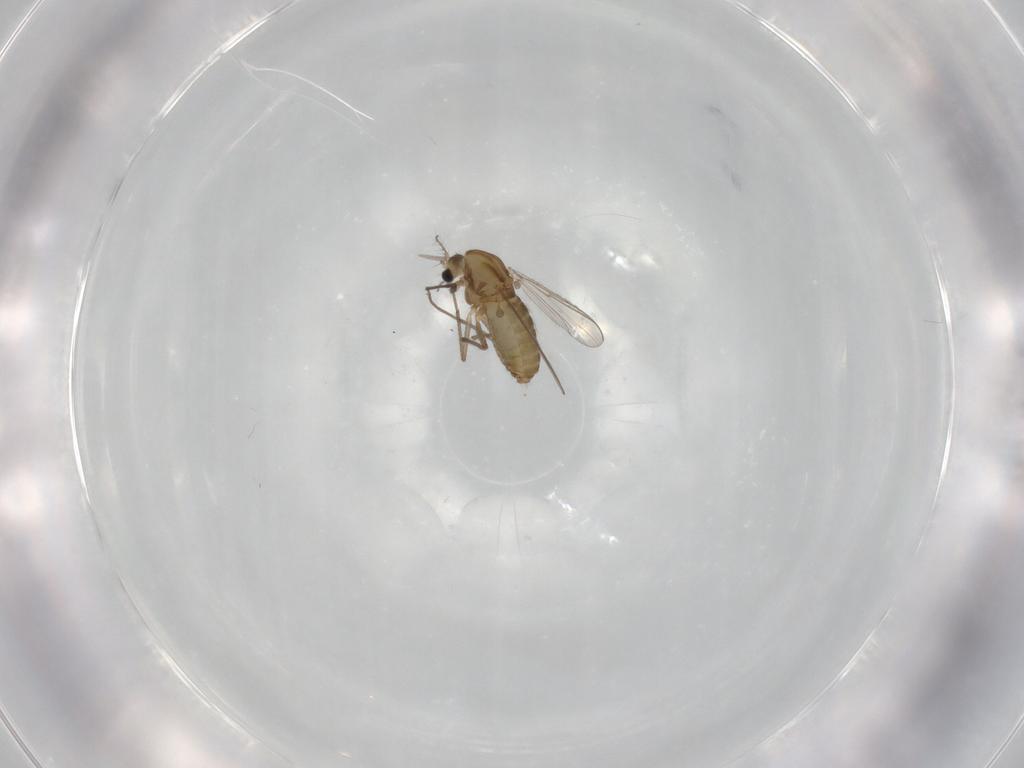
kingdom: Animalia
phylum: Arthropoda
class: Insecta
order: Diptera
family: Chironomidae
